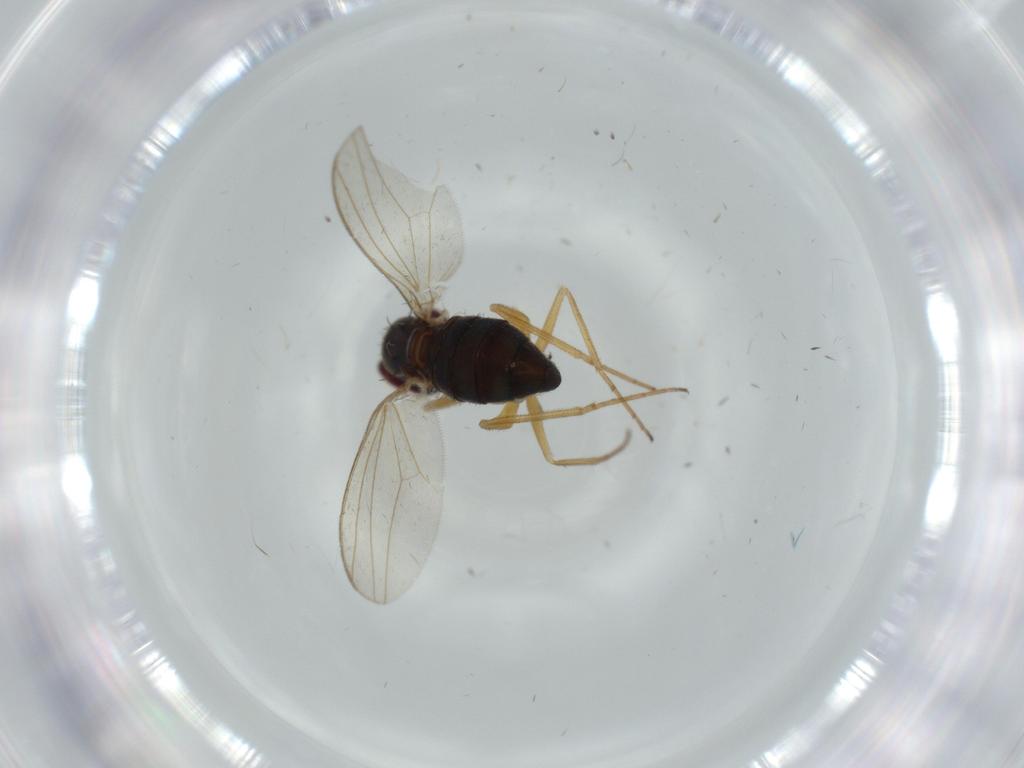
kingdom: Animalia
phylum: Arthropoda
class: Insecta
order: Diptera
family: Dolichopodidae
